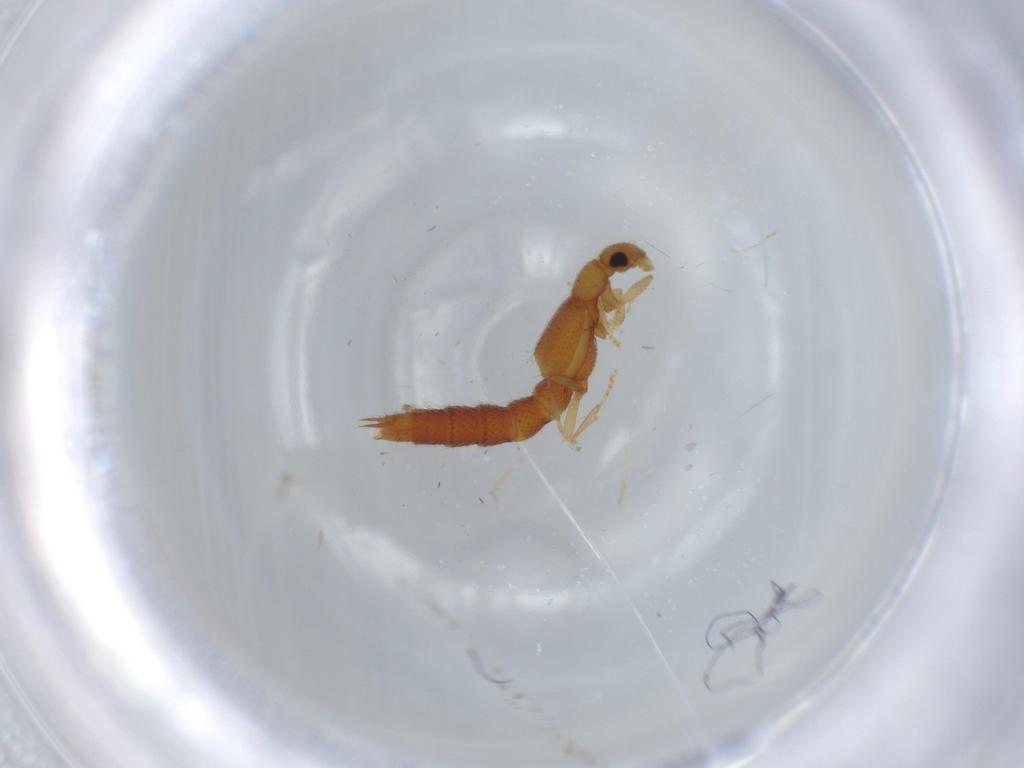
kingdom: Animalia
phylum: Arthropoda
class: Insecta
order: Coleoptera
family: Staphylinidae
